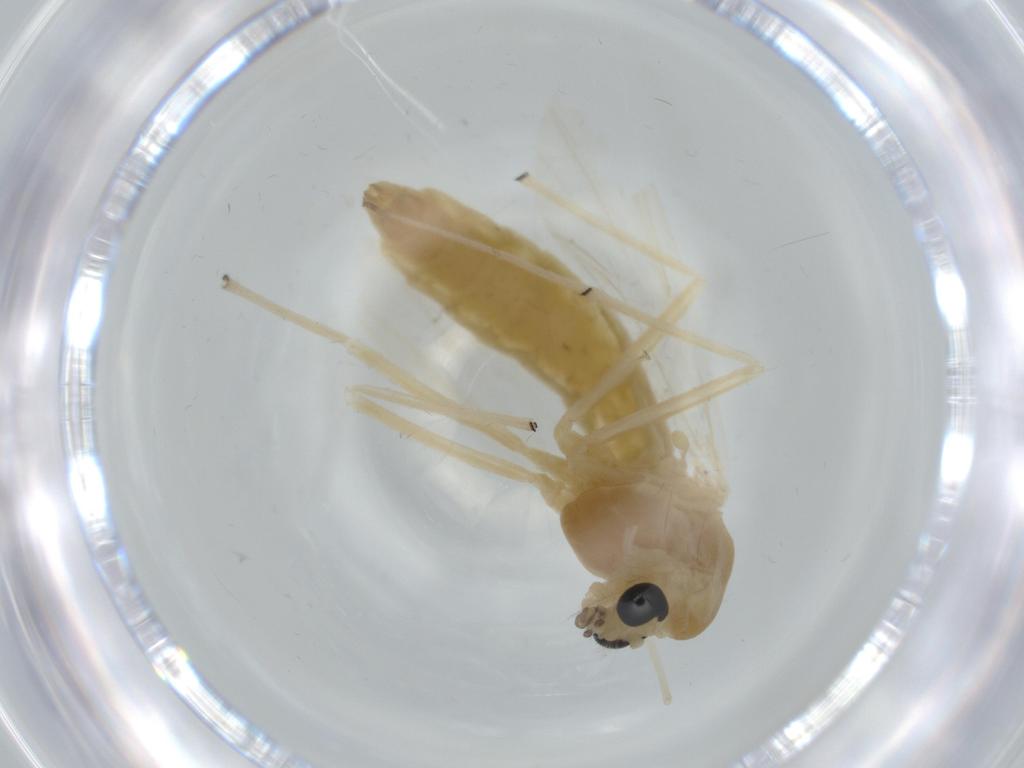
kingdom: Animalia
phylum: Arthropoda
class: Insecta
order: Diptera
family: Chironomidae
